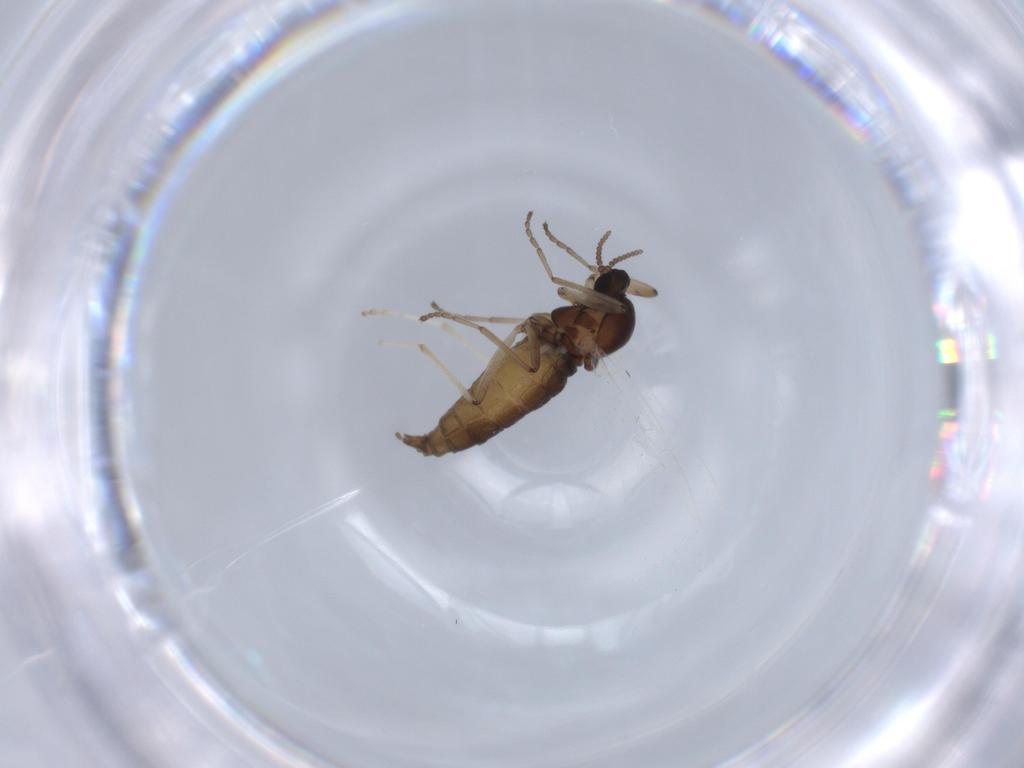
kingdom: Animalia
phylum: Arthropoda
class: Insecta
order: Diptera
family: Cecidomyiidae
